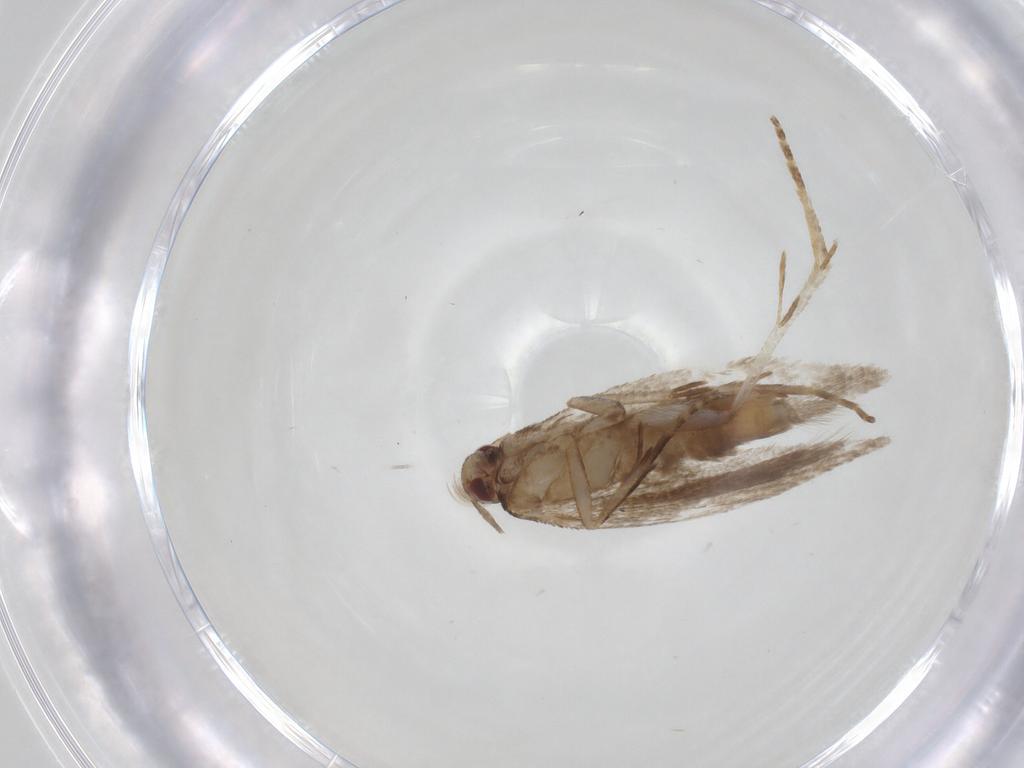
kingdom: Animalia
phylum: Arthropoda
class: Insecta
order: Lepidoptera
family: Gelechiidae
